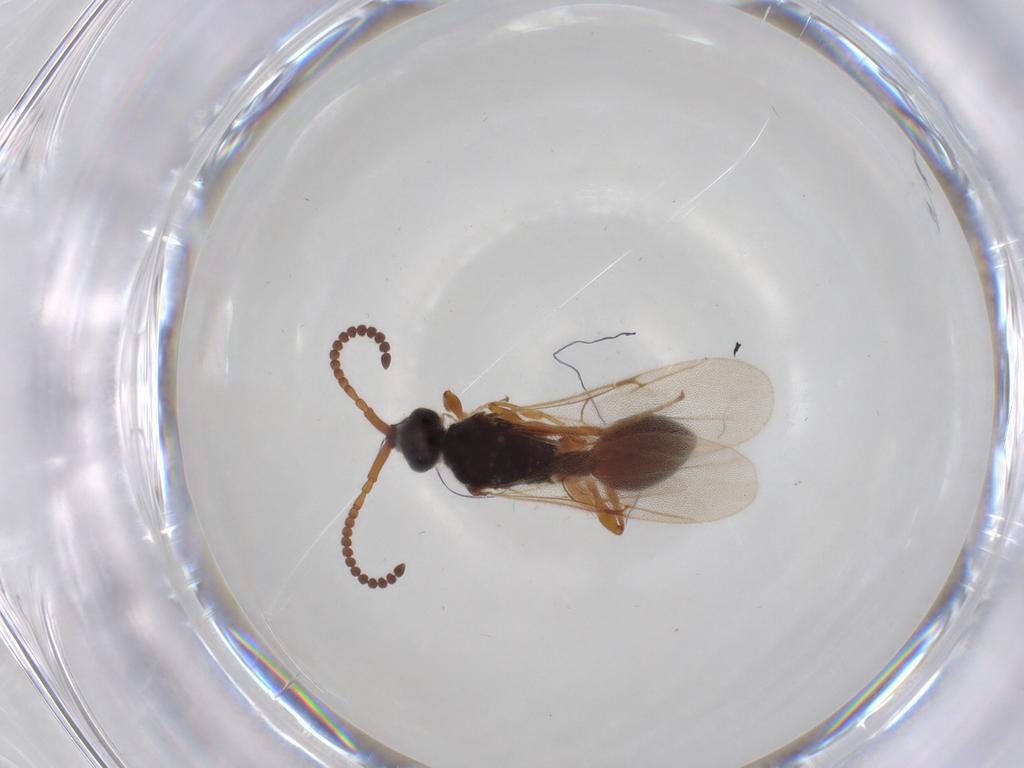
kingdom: Animalia
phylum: Arthropoda
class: Insecta
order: Hymenoptera
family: Diapriidae
